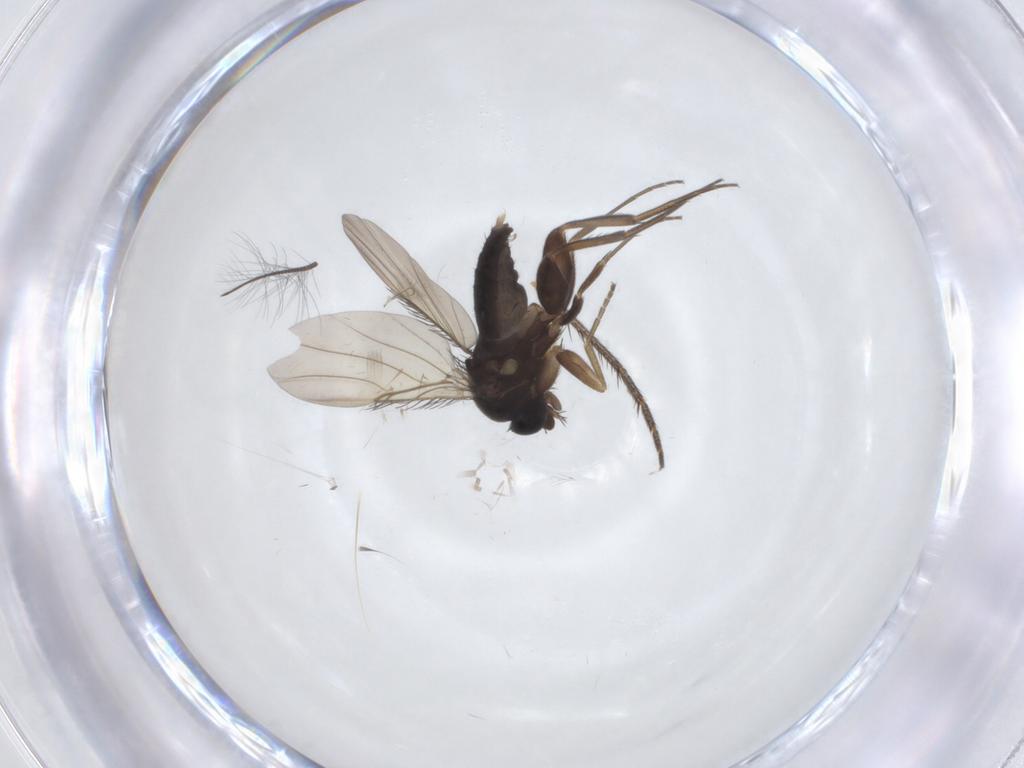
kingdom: Animalia
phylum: Arthropoda
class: Insecta
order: Diptera
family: Phoridae
